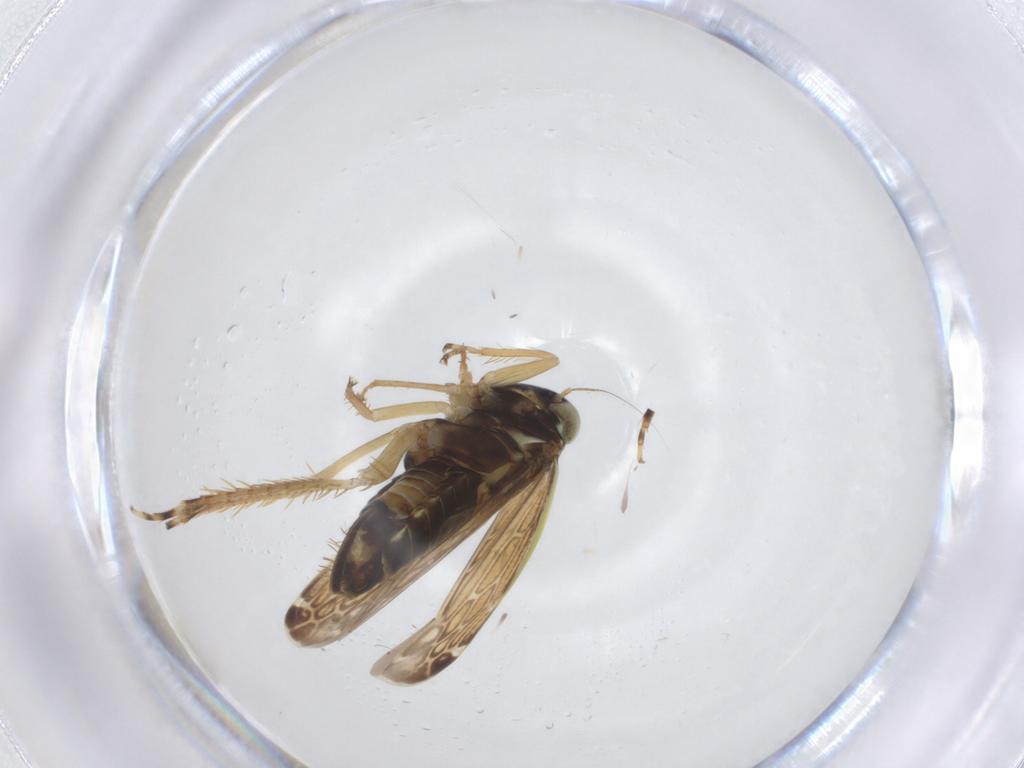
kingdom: Animalia
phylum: Arthropoda
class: Insecta
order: Hemiptera
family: Cicadellidae
